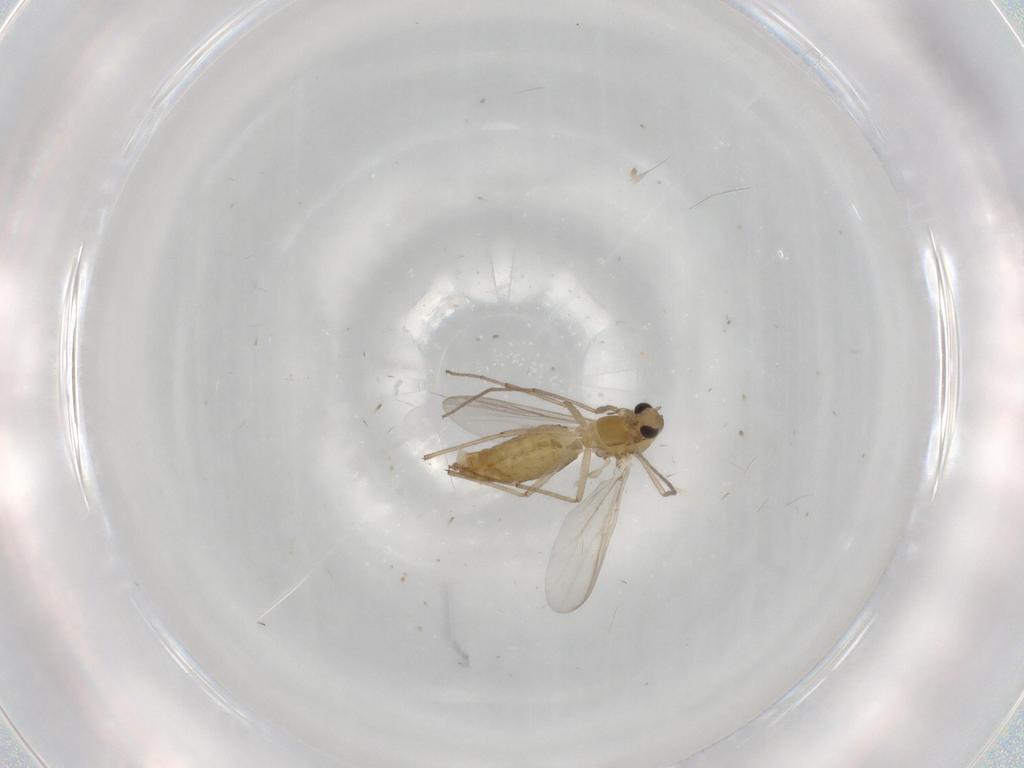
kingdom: Animalia
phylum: Arthropoda
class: Insecta
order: Diptera
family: Chironomidae
